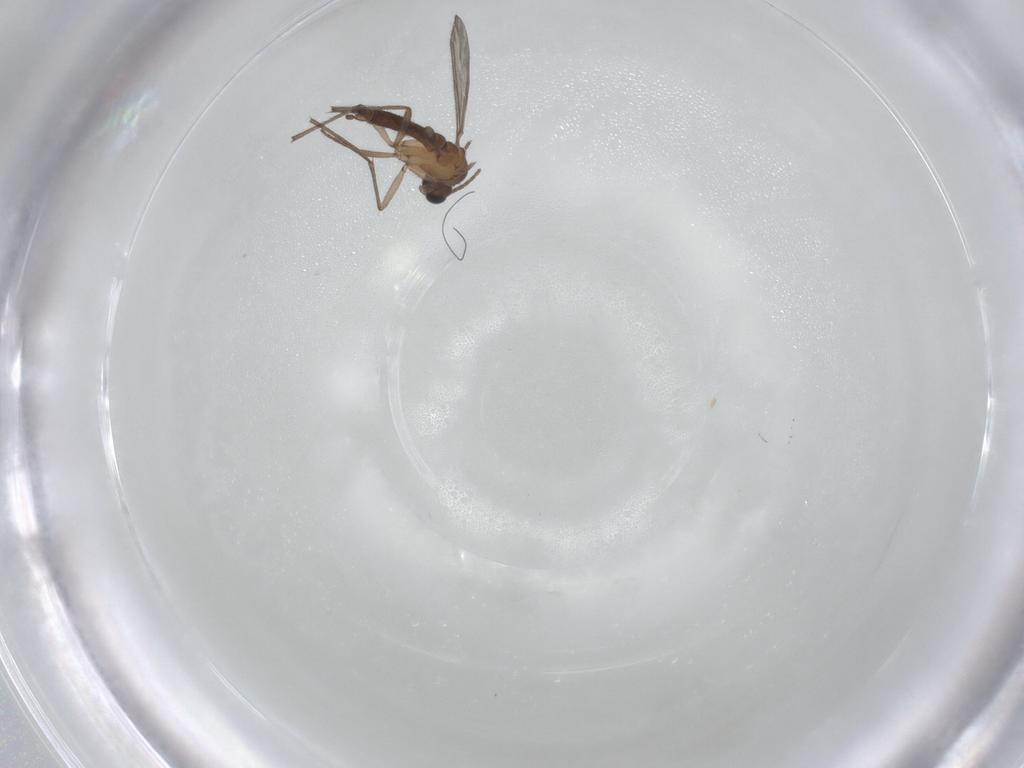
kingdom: Animalia
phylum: Arthropoda
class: Insecta
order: Diptera
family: Sciaridae
